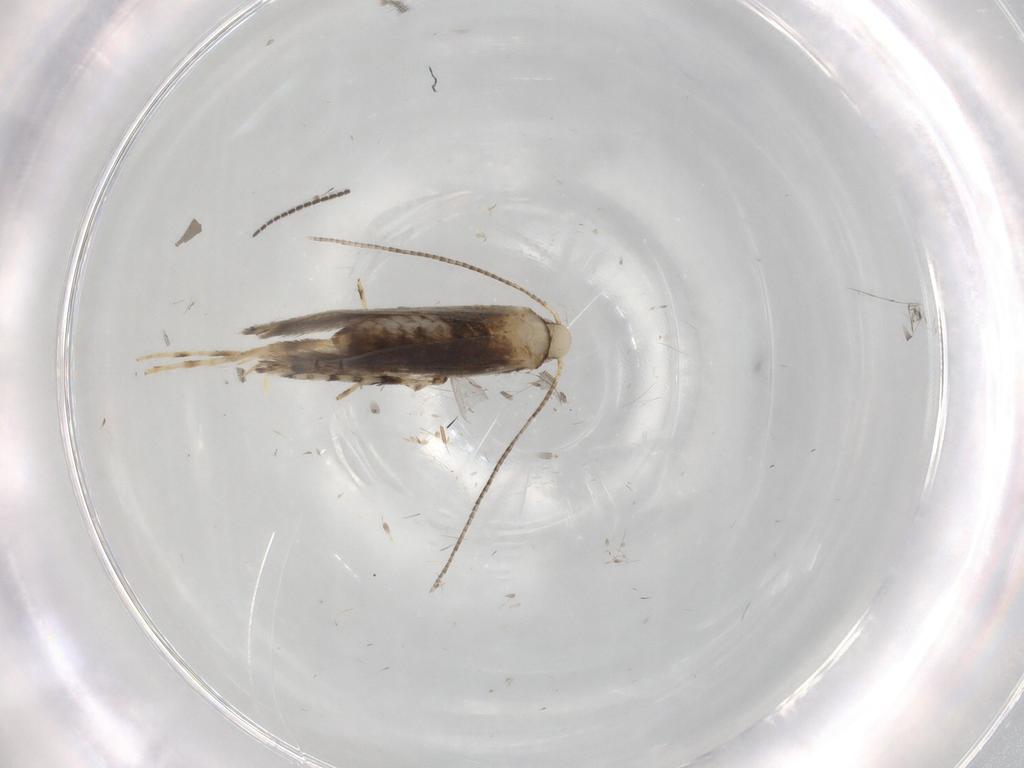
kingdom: Animalia
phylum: Arthropoda
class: Insecta
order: Lepidoptera
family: Gracillariidae
